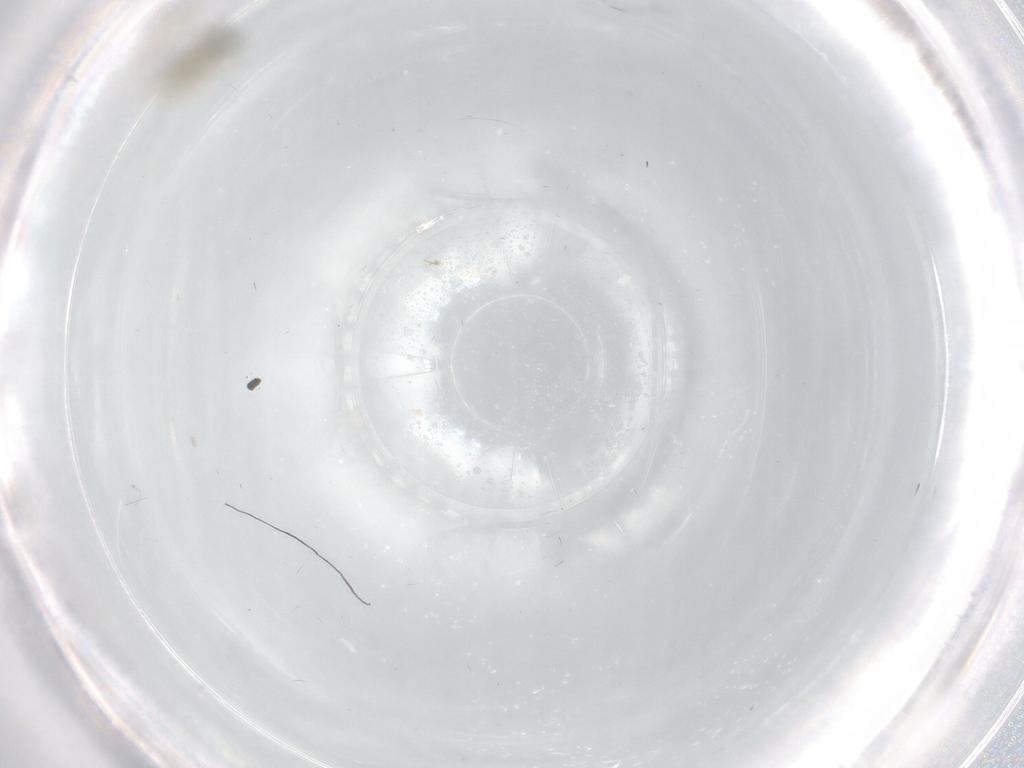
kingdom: Animalia
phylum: Arthropoda
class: Insecta
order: Diptera
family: Cecidomyiidae
